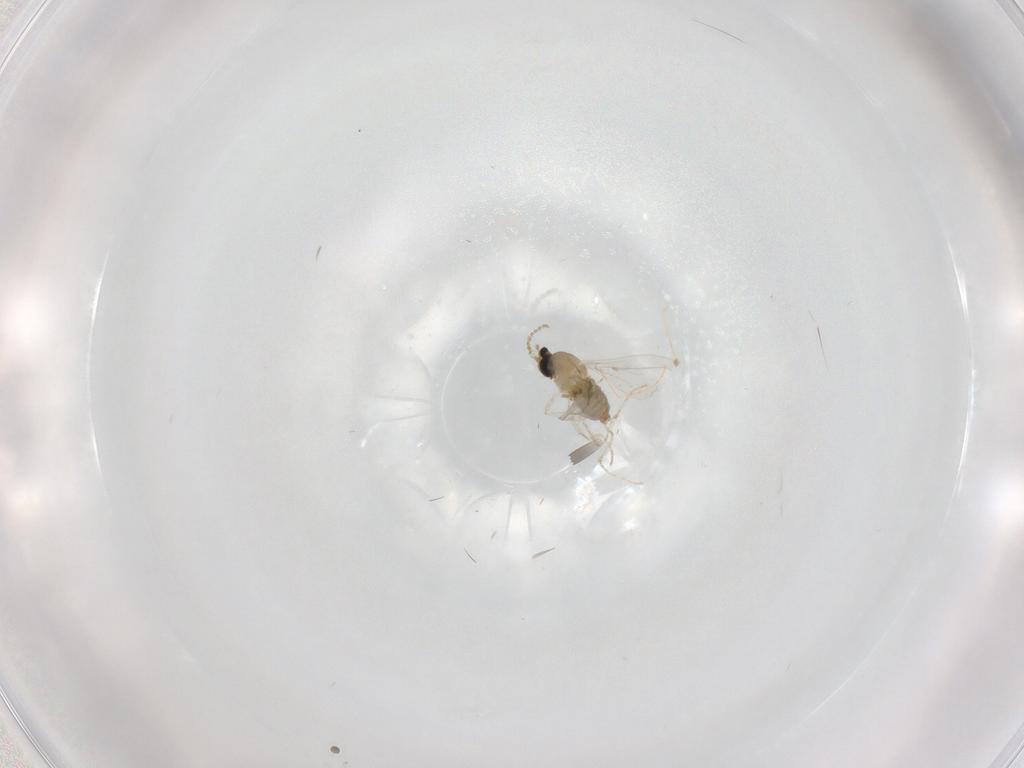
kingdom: Animalia
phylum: Arthropoda
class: Insecta
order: Diptera
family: Cecidomyiidae
